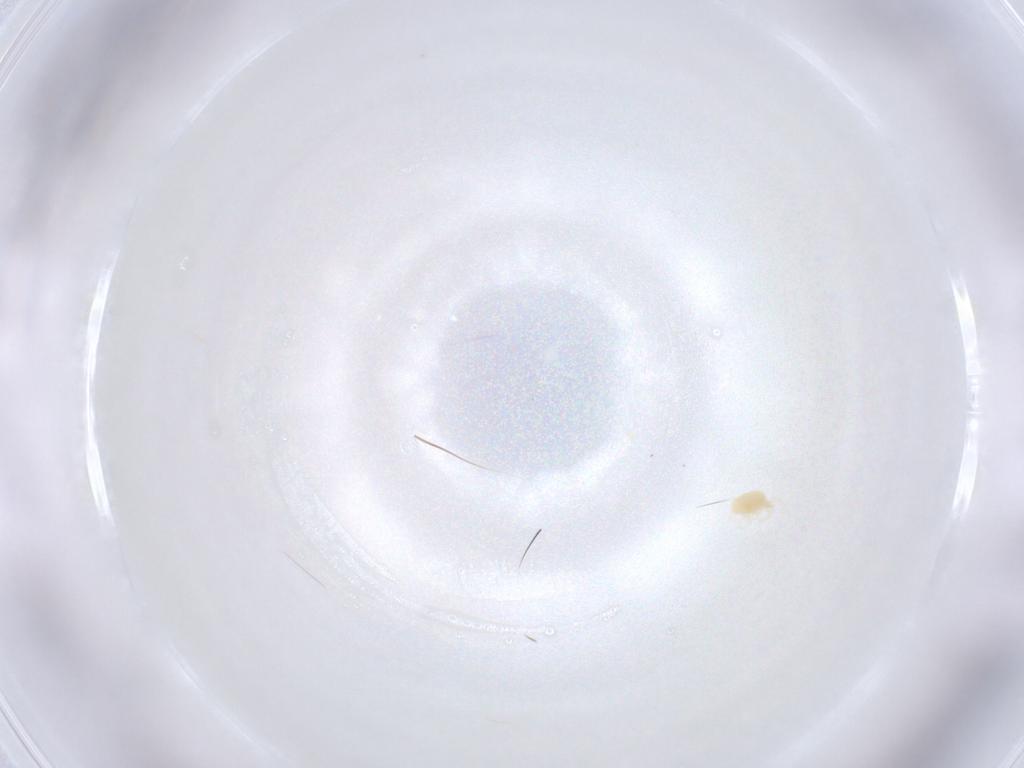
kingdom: Animalia
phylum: Arthropoda
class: Arachnida
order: Trombidiformes
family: Tetranychidae
